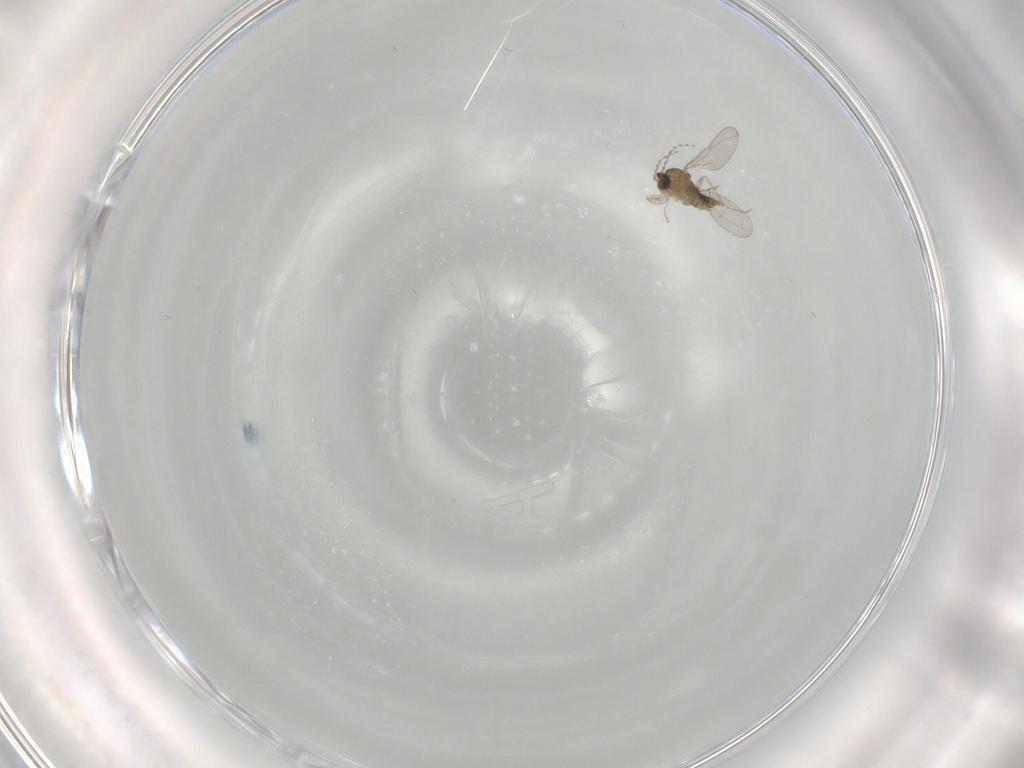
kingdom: Animalia
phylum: Arthropoda
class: Insecta
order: Diptera
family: Cecidomyiidae
